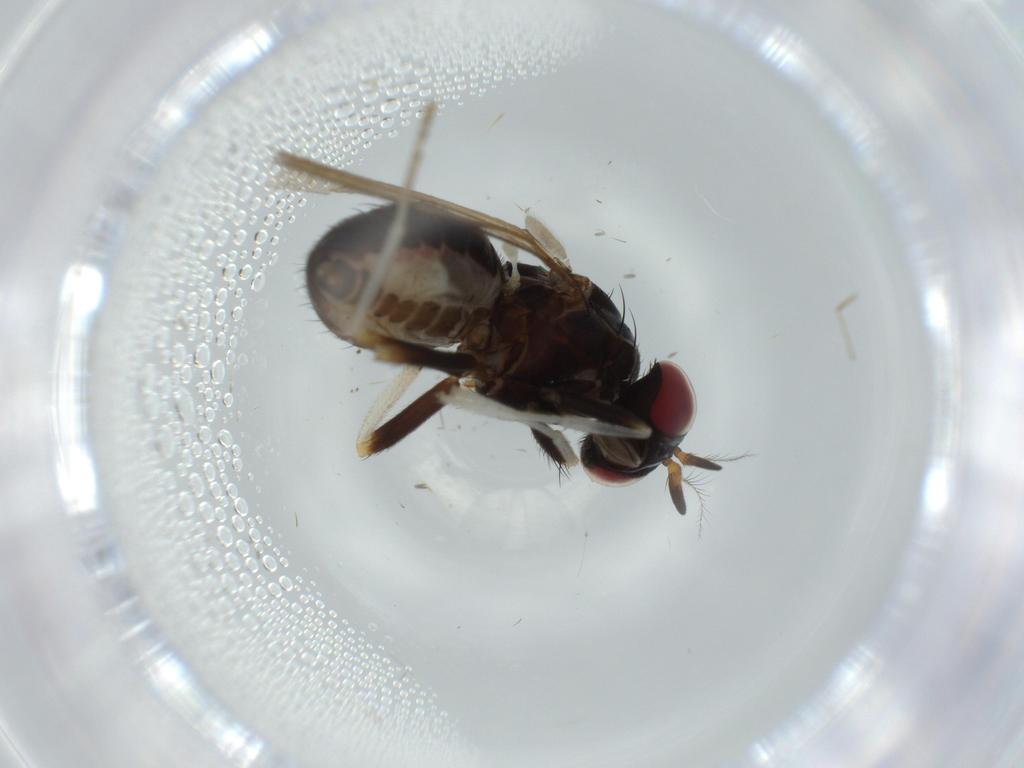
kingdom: Animalia
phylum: Arthropoda
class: Insecta
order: Diptera
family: Lauxaniidae
